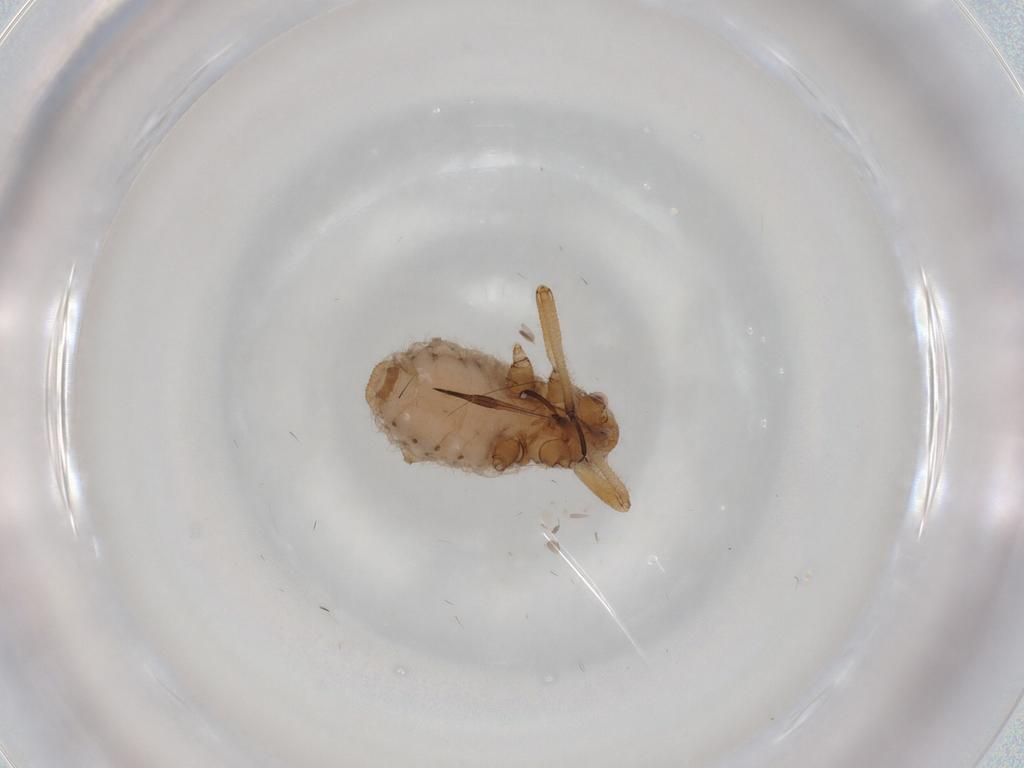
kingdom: Animalia
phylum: Arthropoda
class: Insecta
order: Hemiptera
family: Aphididae
